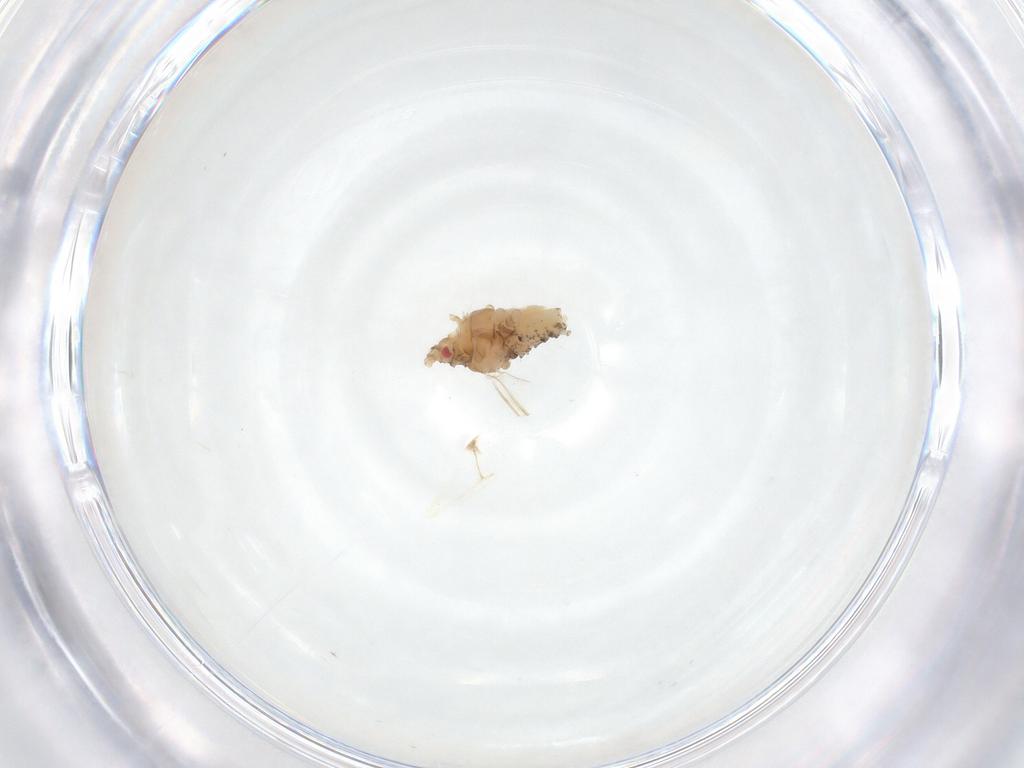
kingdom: Animalia
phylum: Arthropoda
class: Insecta
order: Hemiptera
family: Aphididae
